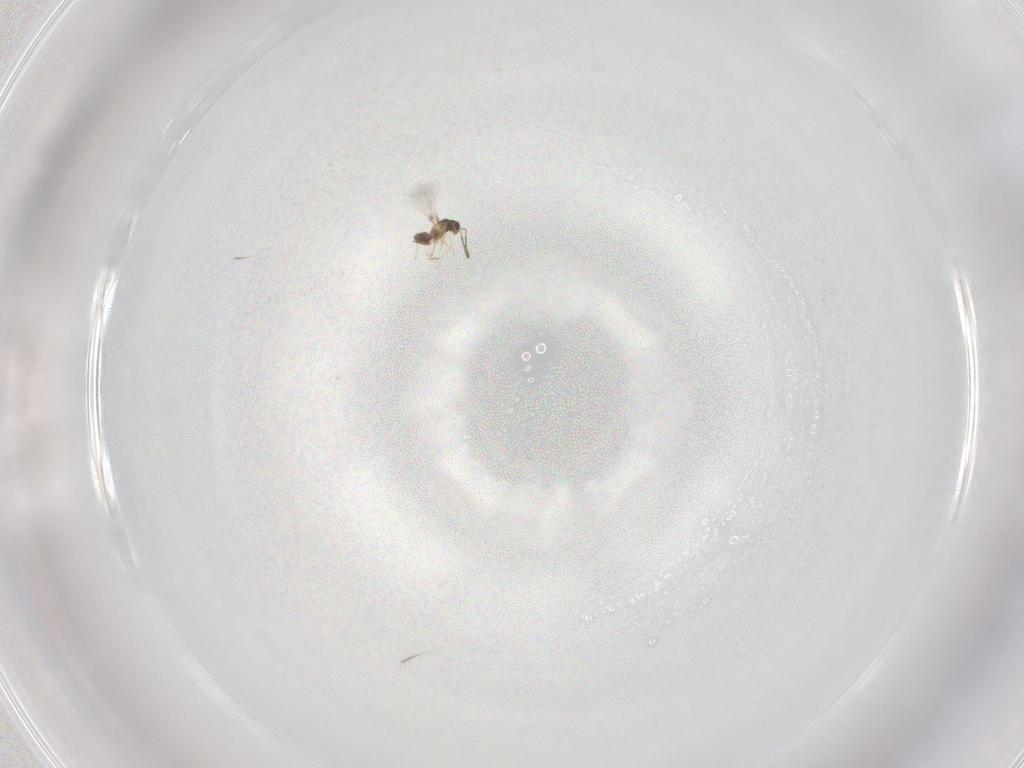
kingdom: Animalia
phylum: Arthropoda
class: Insecta
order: Hymenoptera
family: Mymaridae
